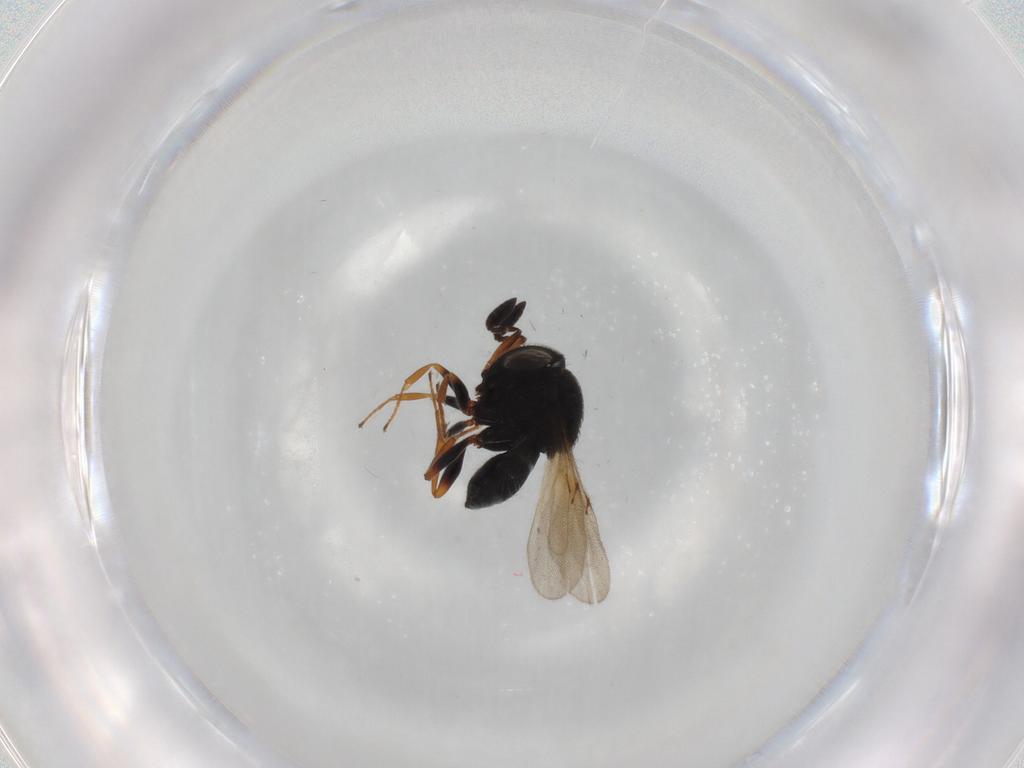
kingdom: Animalia
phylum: Arthropoda
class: Insecta
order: Hymenoptera
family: Scelionidae
